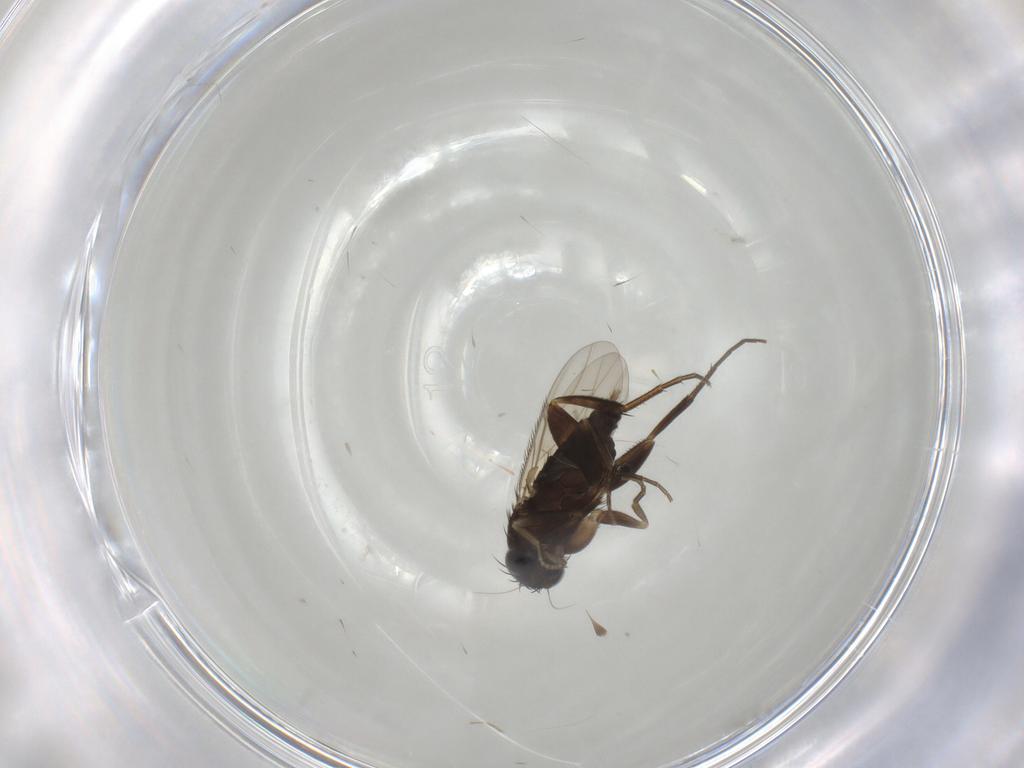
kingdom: Animalia
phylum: Arthropoda
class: Insecta
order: Diptera
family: Phoridae
